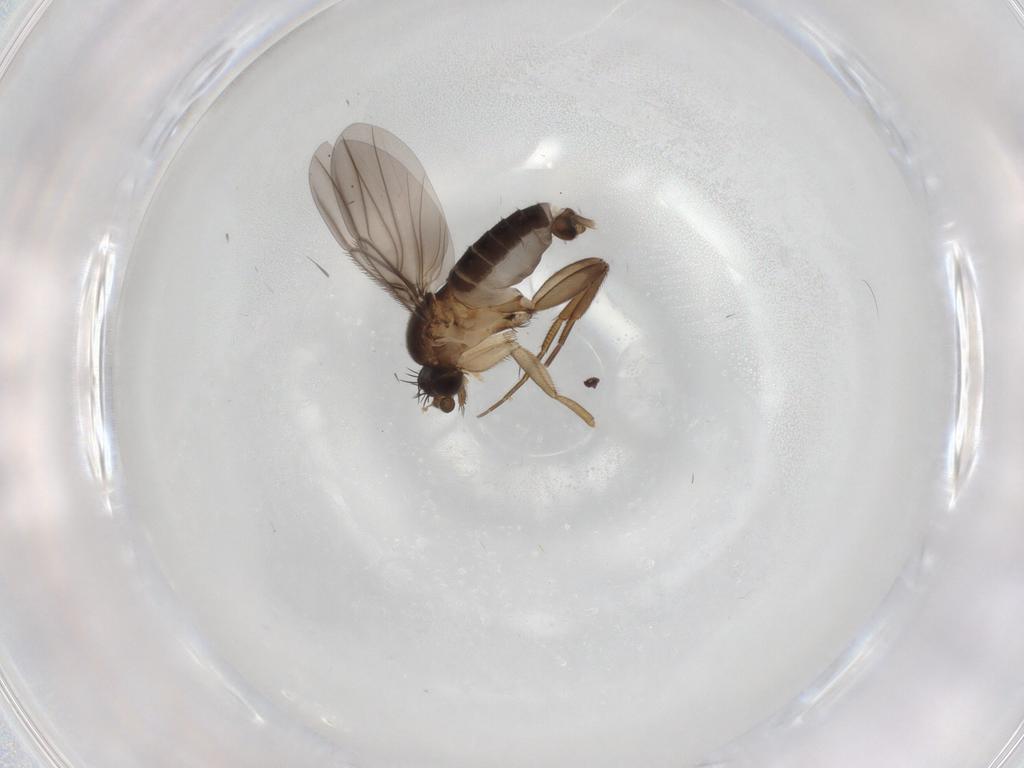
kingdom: Animalia
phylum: Arthropoda
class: Insecta
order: Diptera
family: Phoridae
